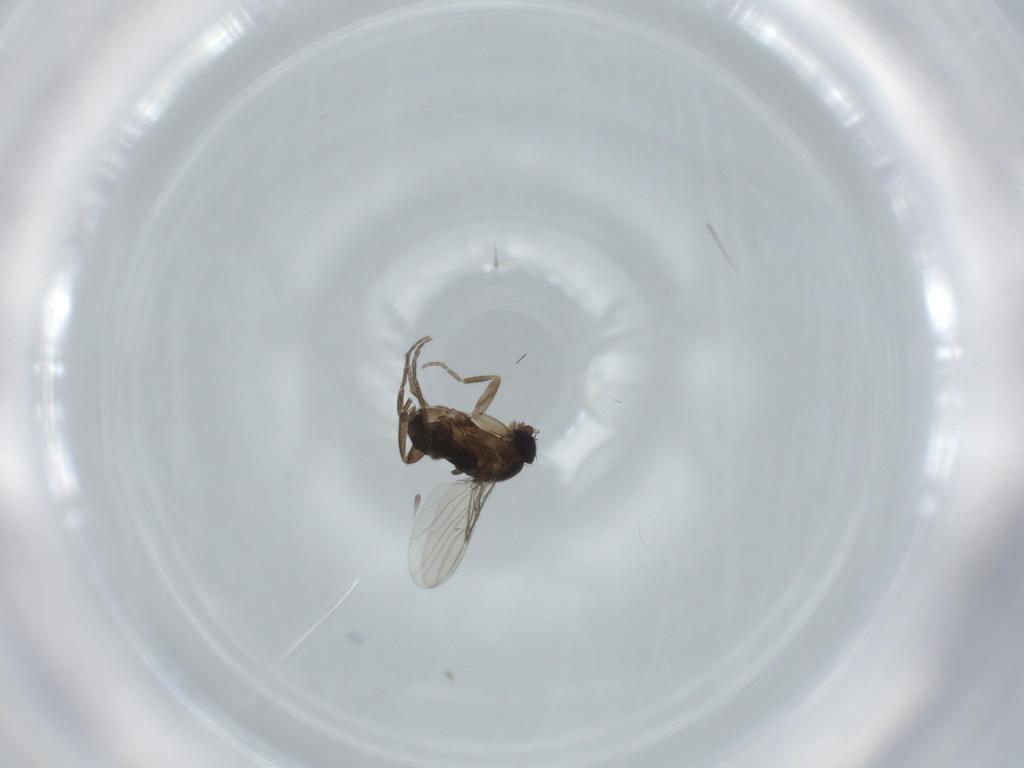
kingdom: Animalia
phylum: Arthropoda
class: Insecta
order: Diptera
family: Phoridae
